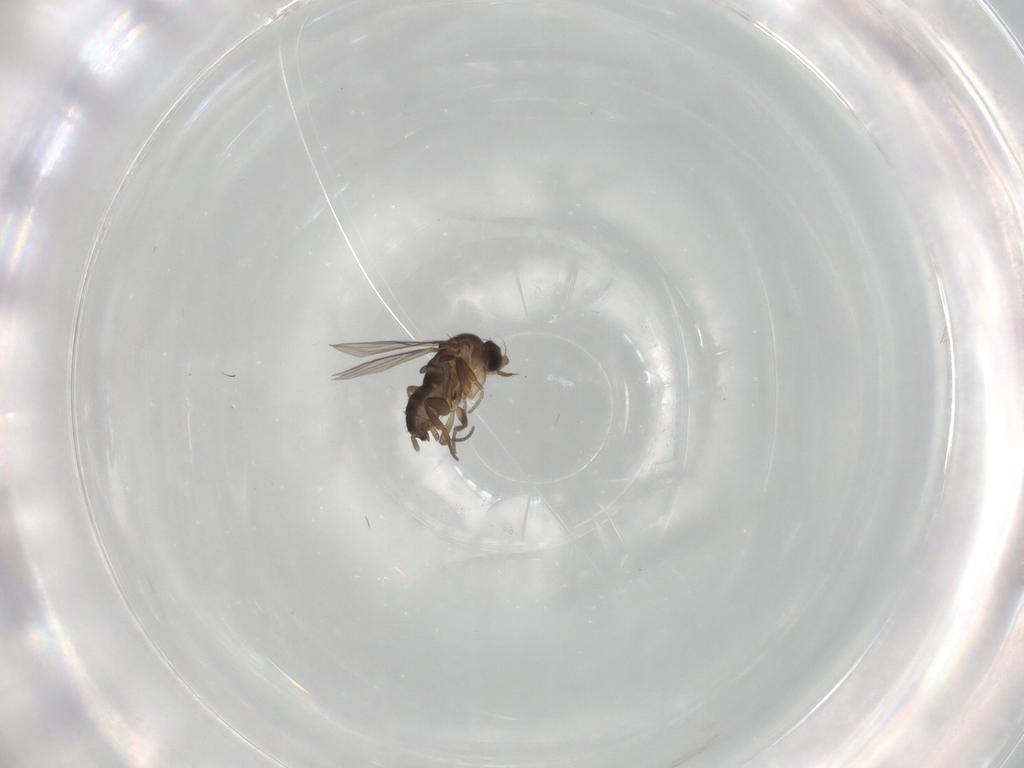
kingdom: Animalia
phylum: Arthropoda
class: Insecta
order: Diptera
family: Phoridae
